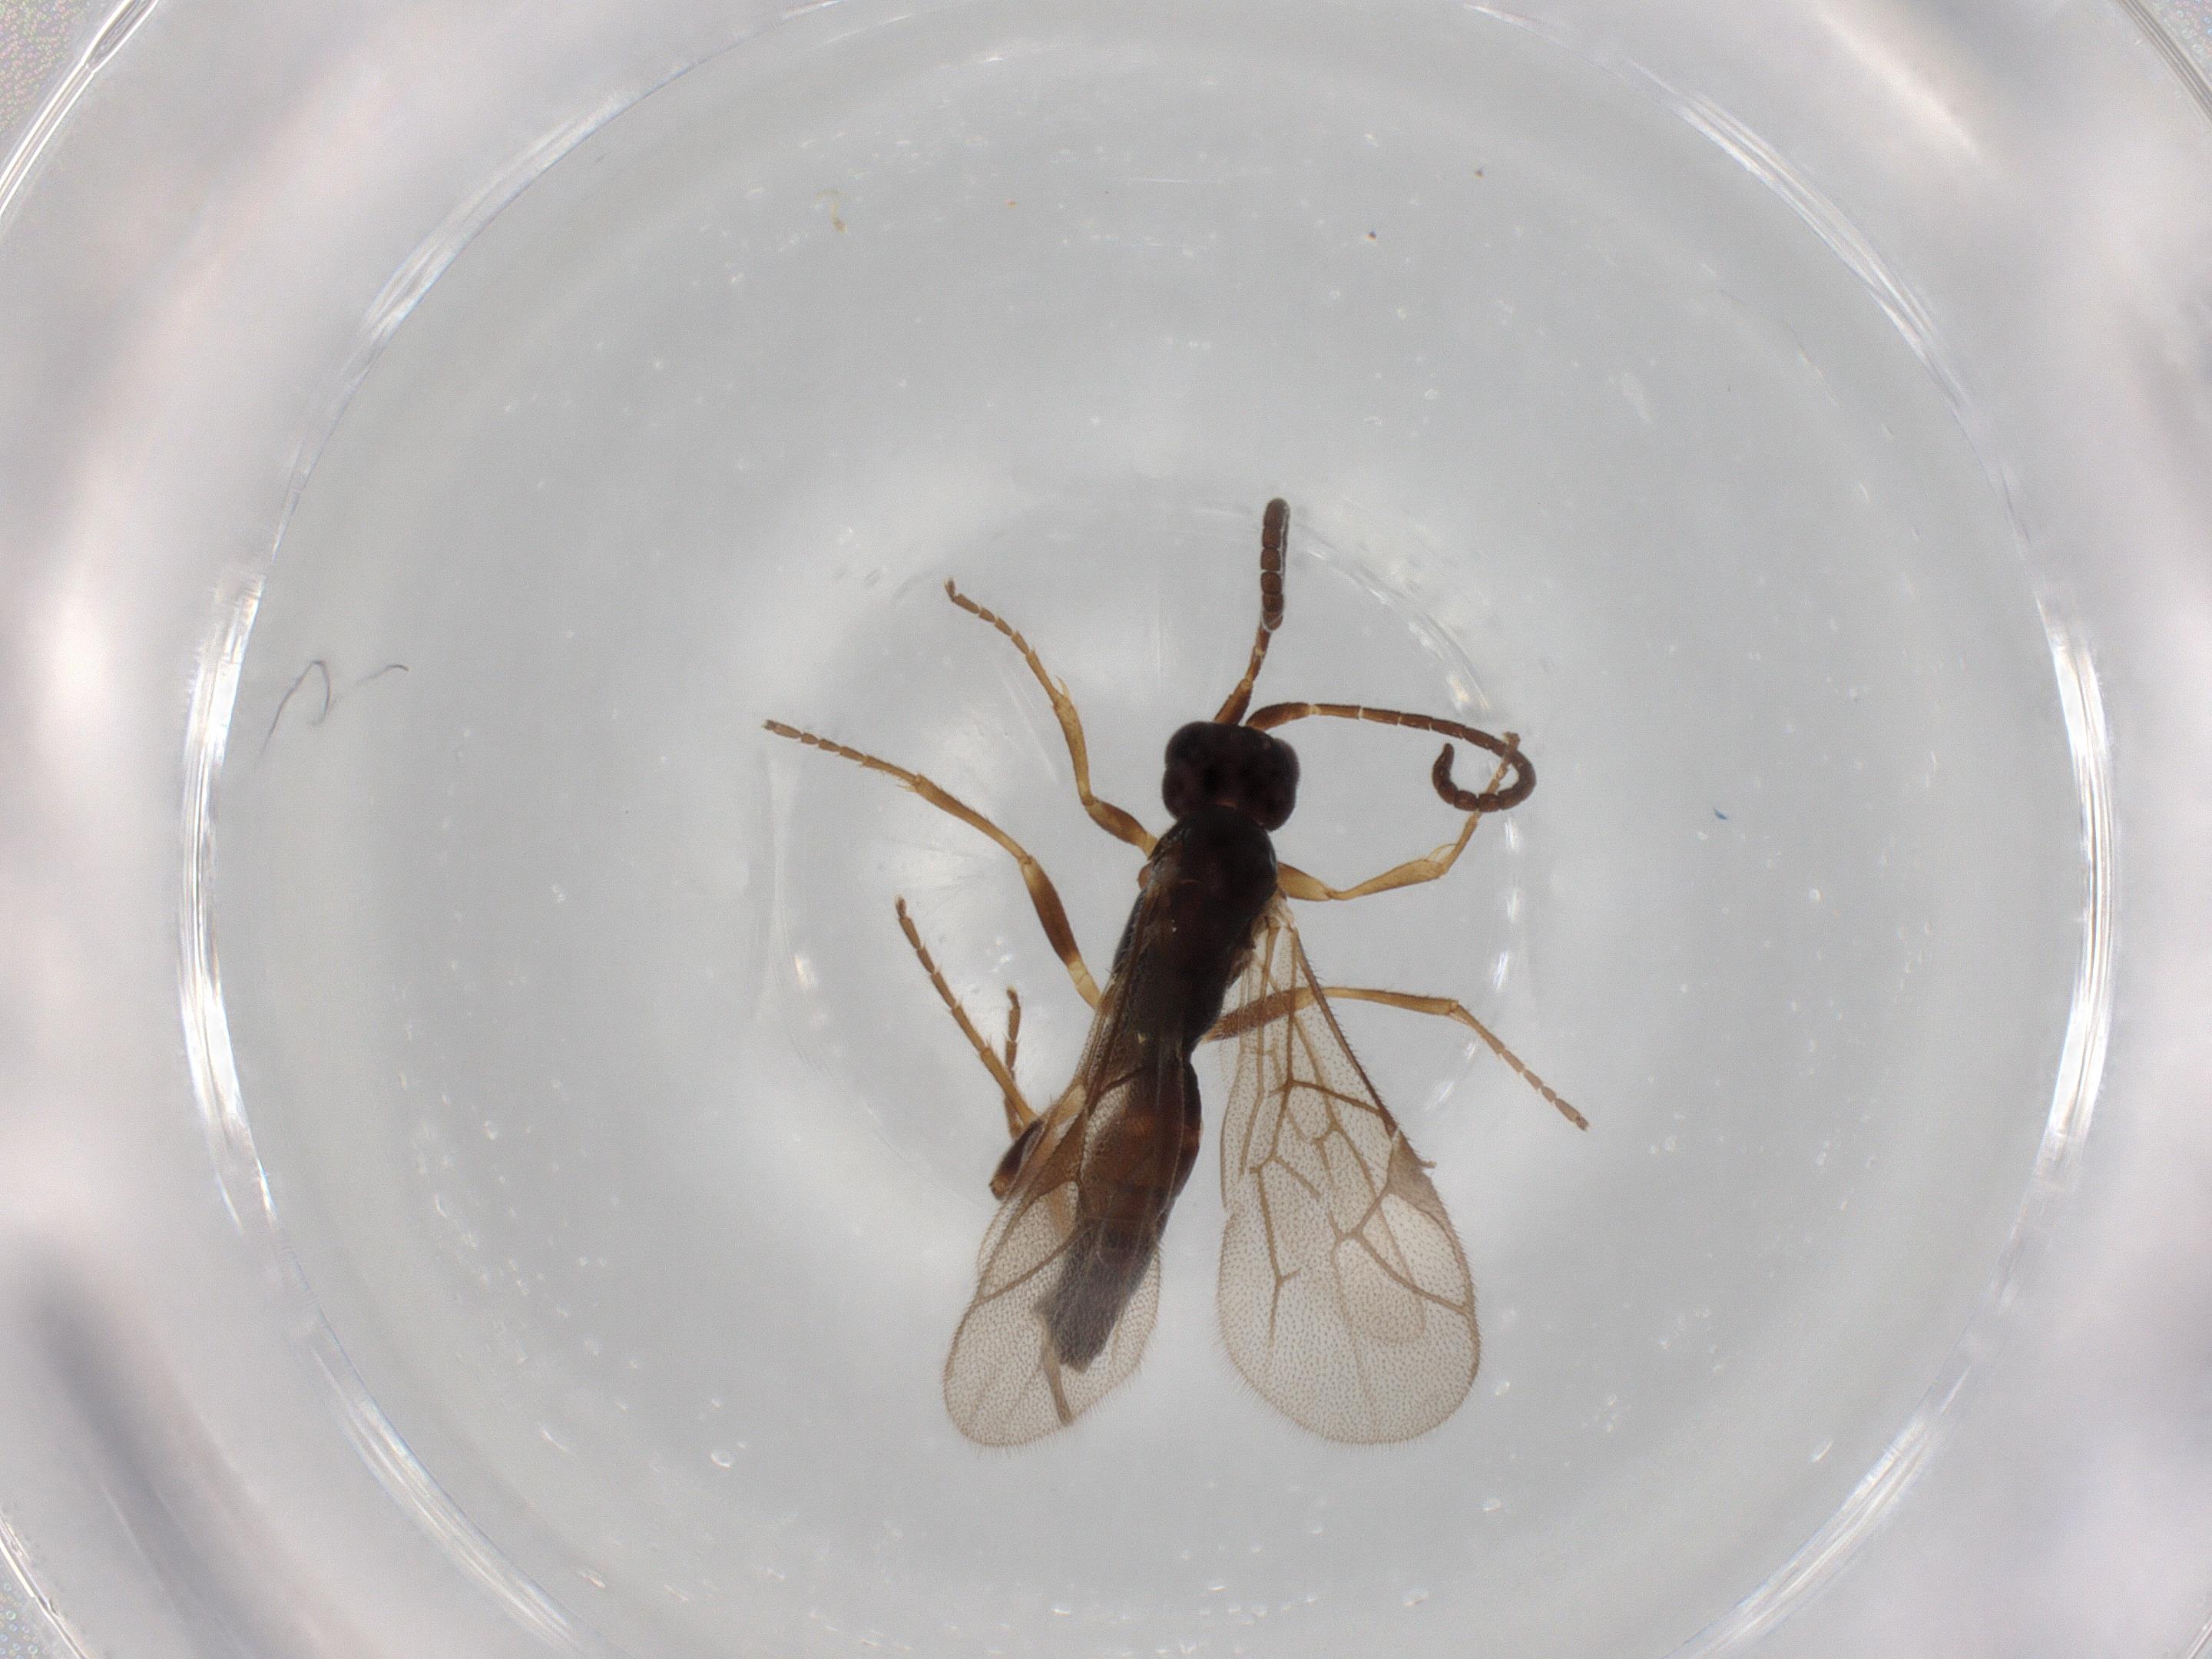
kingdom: Animalia
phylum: Arthropoda
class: Insecta
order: Hymenoptera
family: Ichneumonidae
